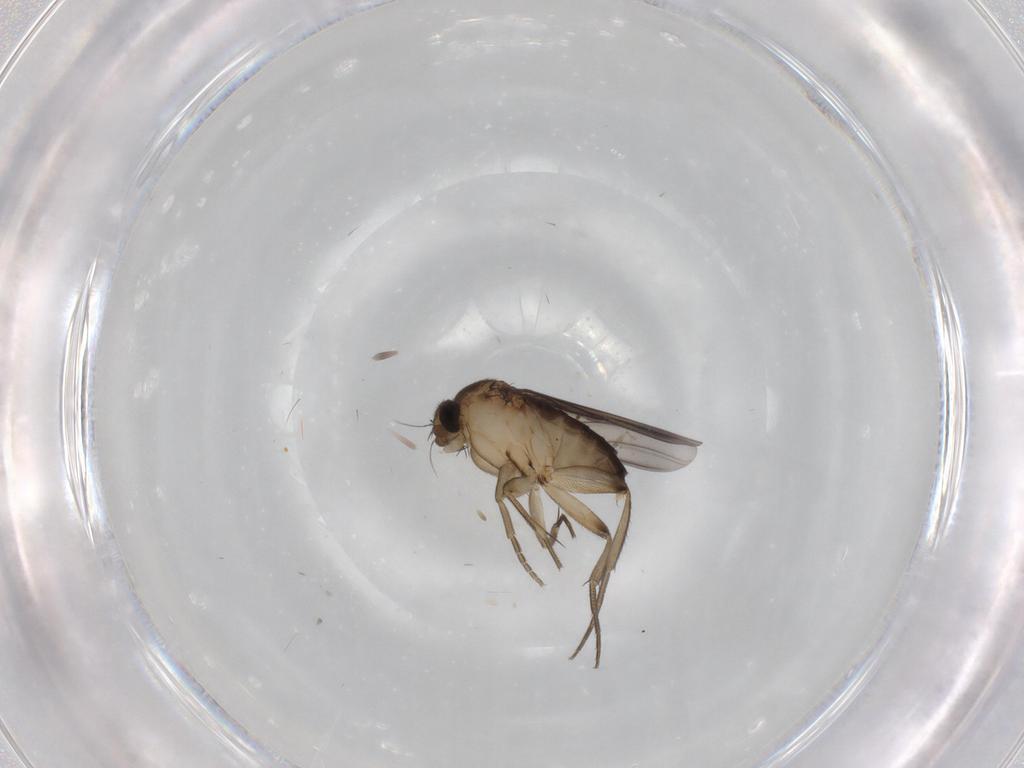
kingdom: Animalia
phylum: Arthropoda
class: Insecta
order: Diptera
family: Phoridae
